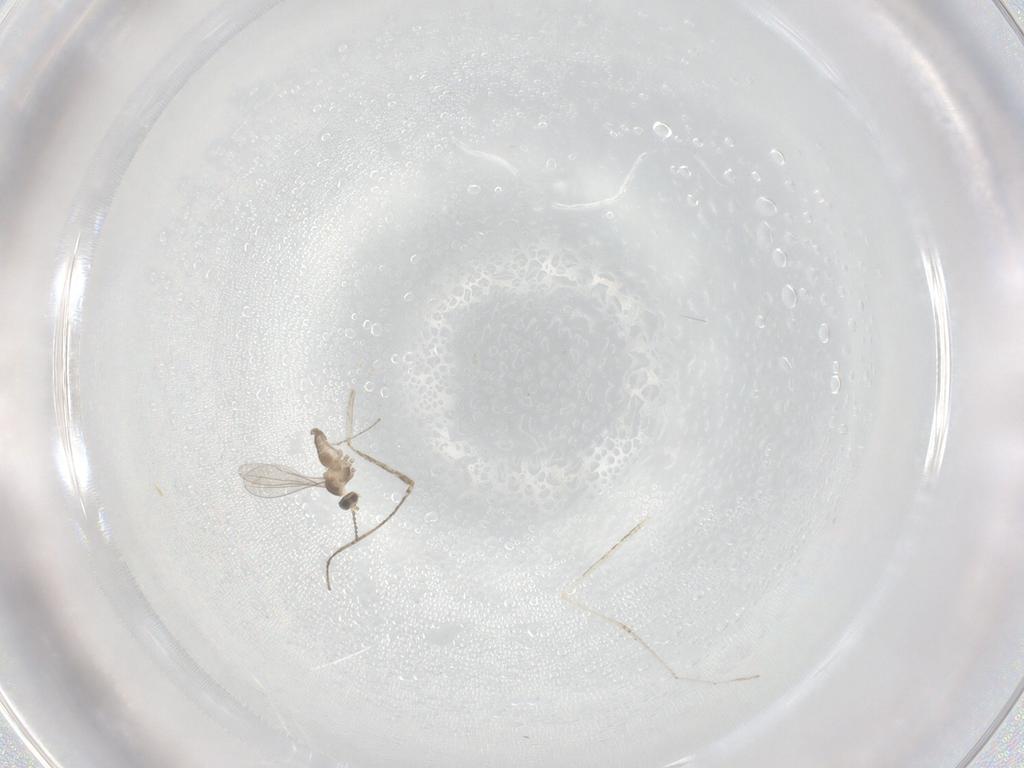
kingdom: Animalia
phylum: Arthropoda
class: Insecta
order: Diptera
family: Cecidomyiidae
